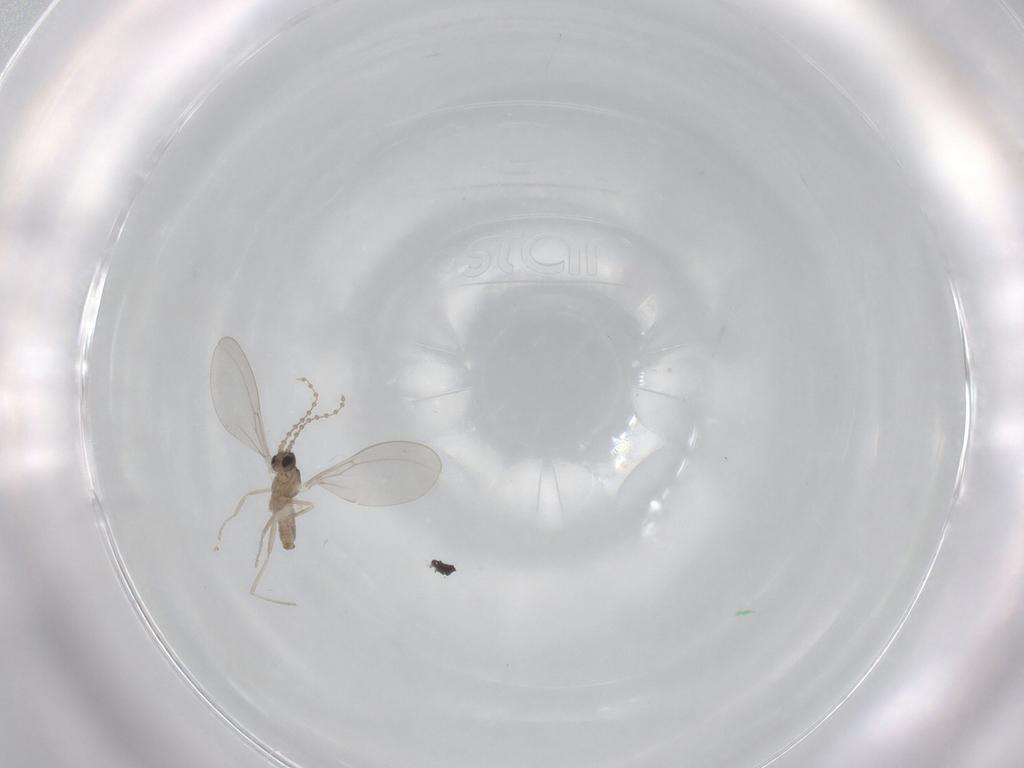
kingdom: Animalia
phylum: Arthropoda
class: Insecta
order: Diptera
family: Cecidomyiidae
